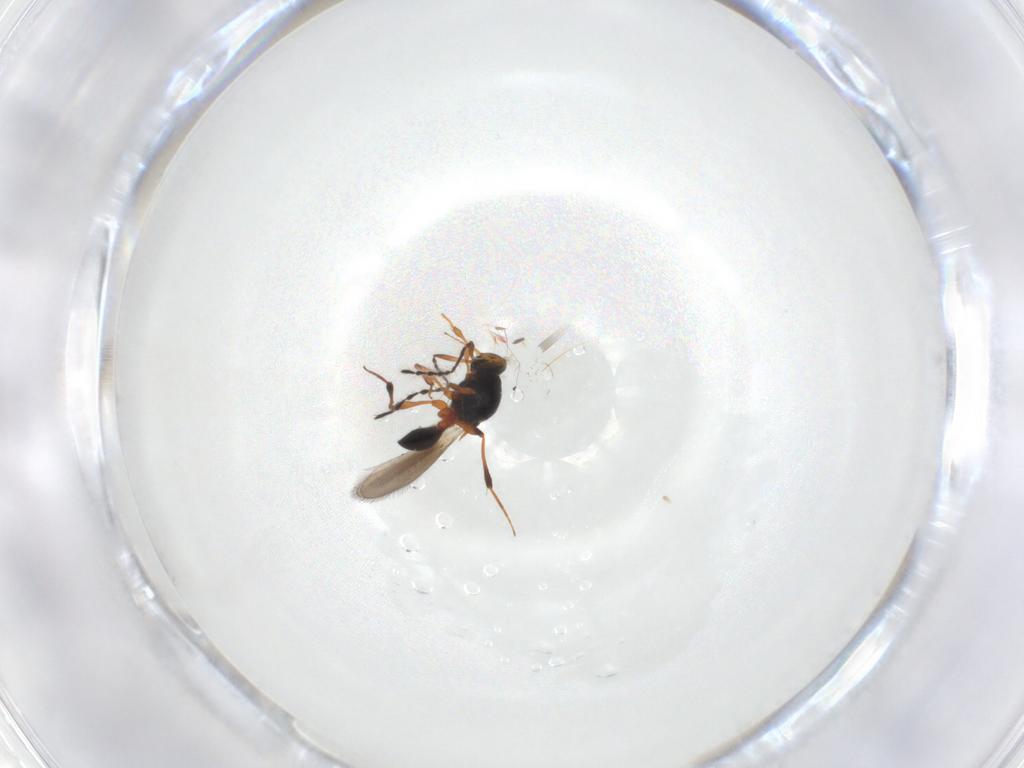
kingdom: Animalia
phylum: Arthropoda
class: Insecta
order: Hymenoptera
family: Platygastridae
